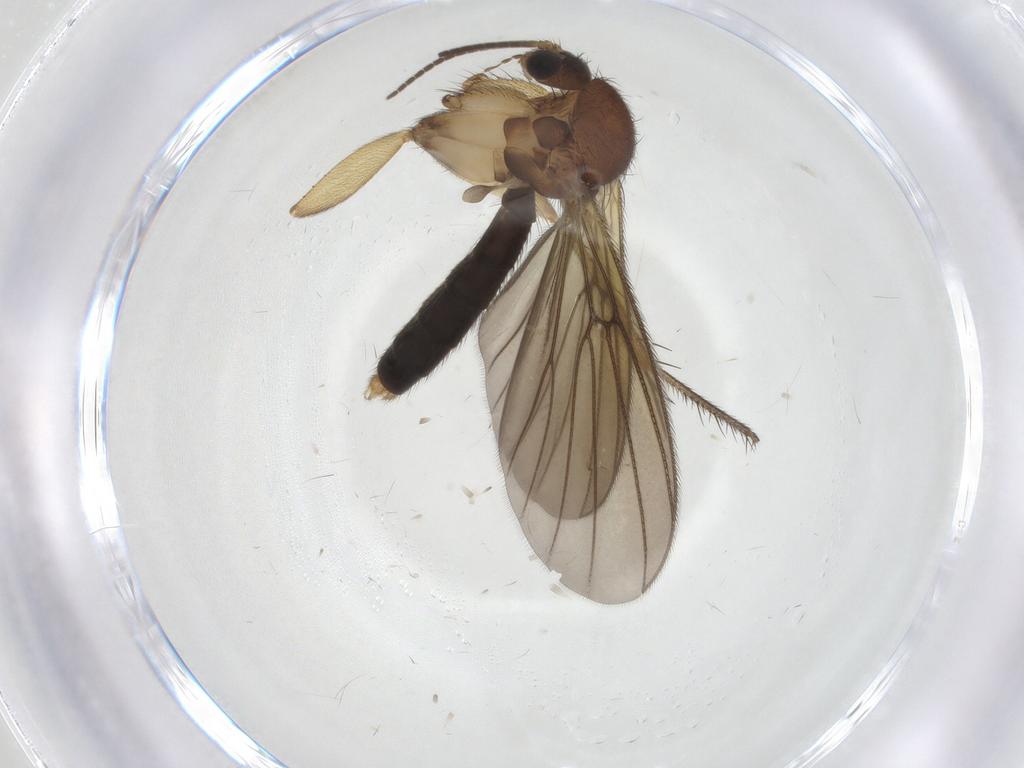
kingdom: Animalia
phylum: Arthropoda
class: Insecta
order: Diptera
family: Mycetophilidae
